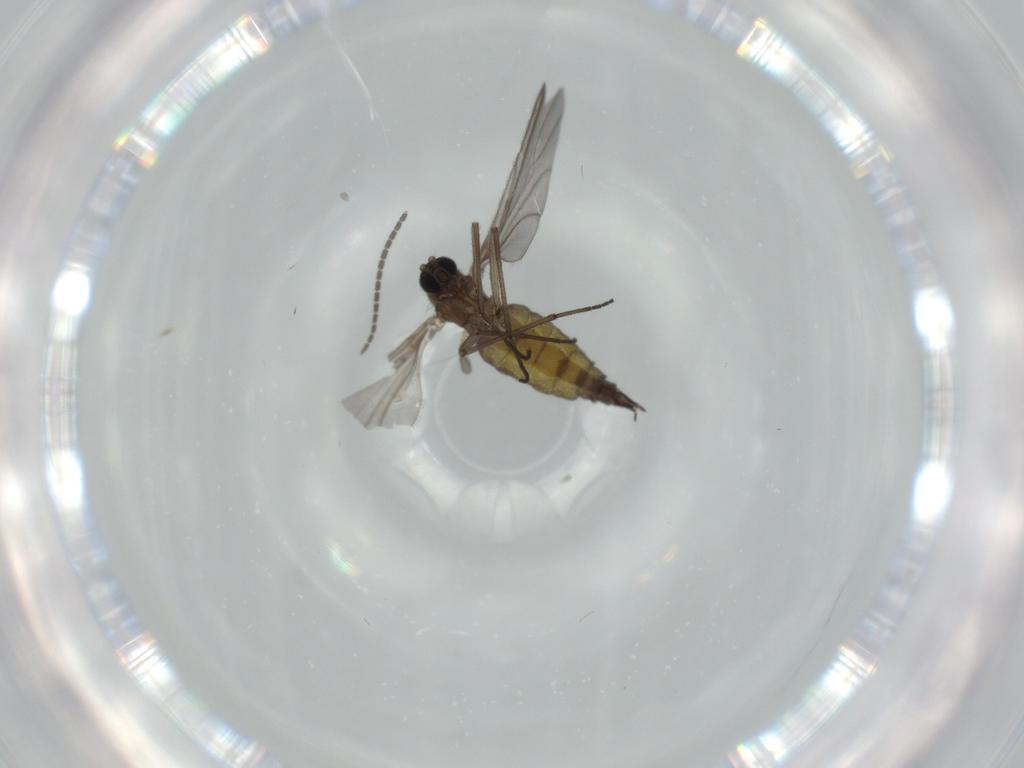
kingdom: Animalia
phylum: Arthropoda
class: Insecta
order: Diptera
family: Sciaridae
